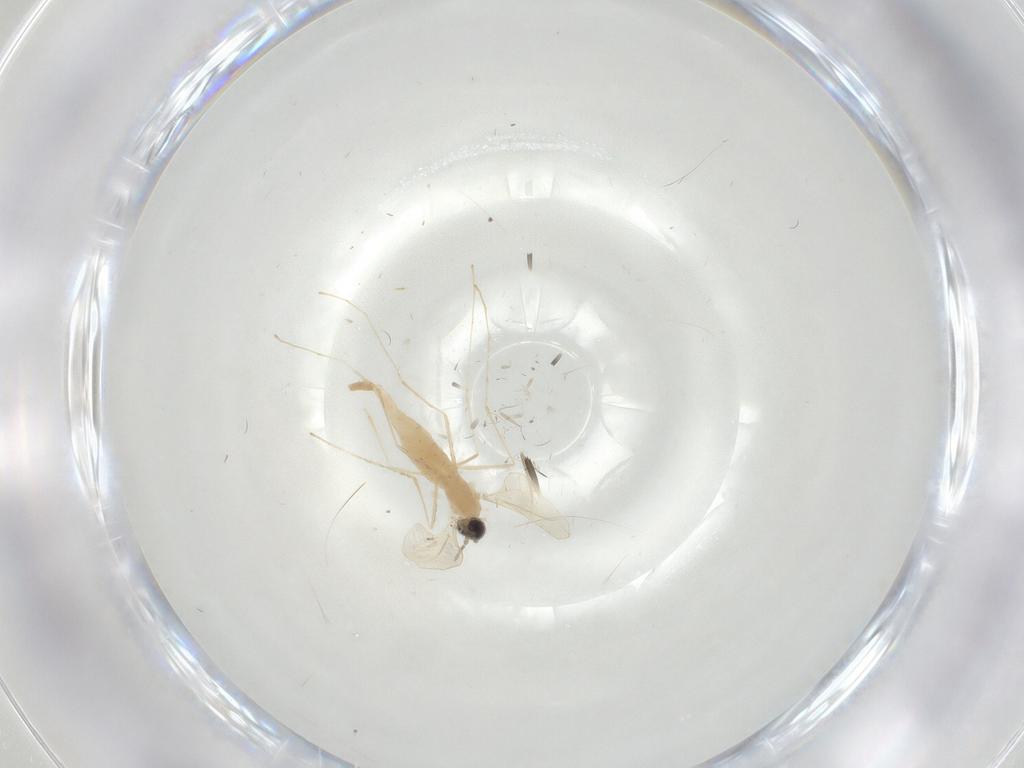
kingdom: Animalia
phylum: Arthropoda
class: Insecta
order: Diptera
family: Cecidomyiidae
